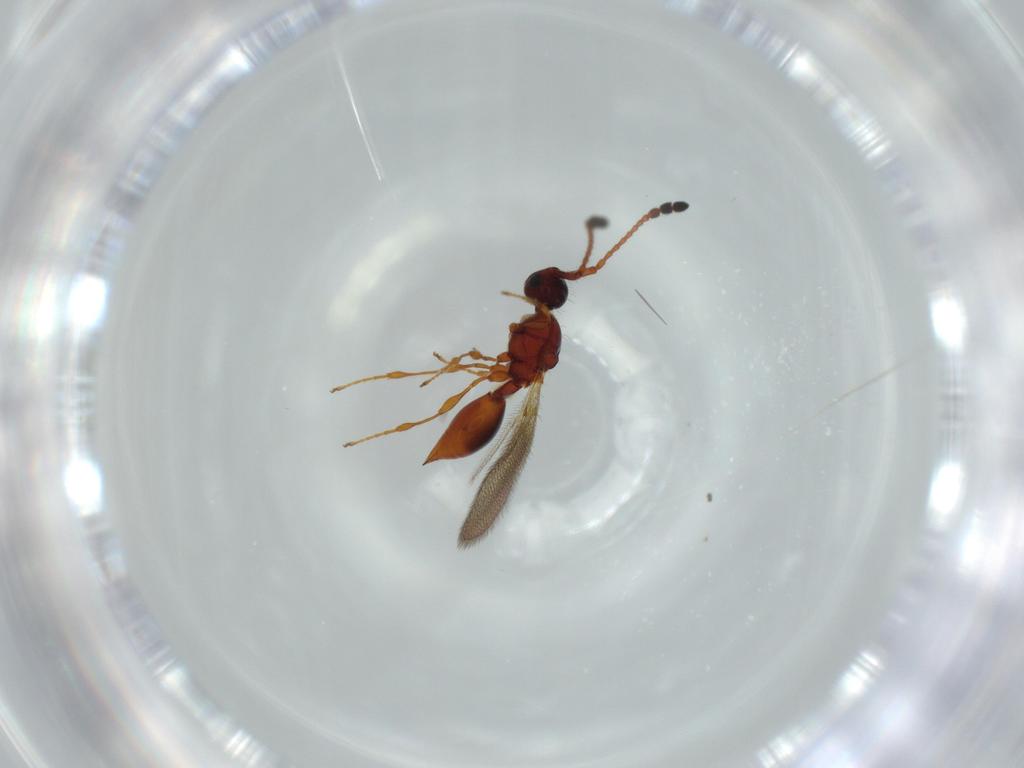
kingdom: Animalia
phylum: Arthropoda
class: Insecta
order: Hymenoptera
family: Diapriidae
